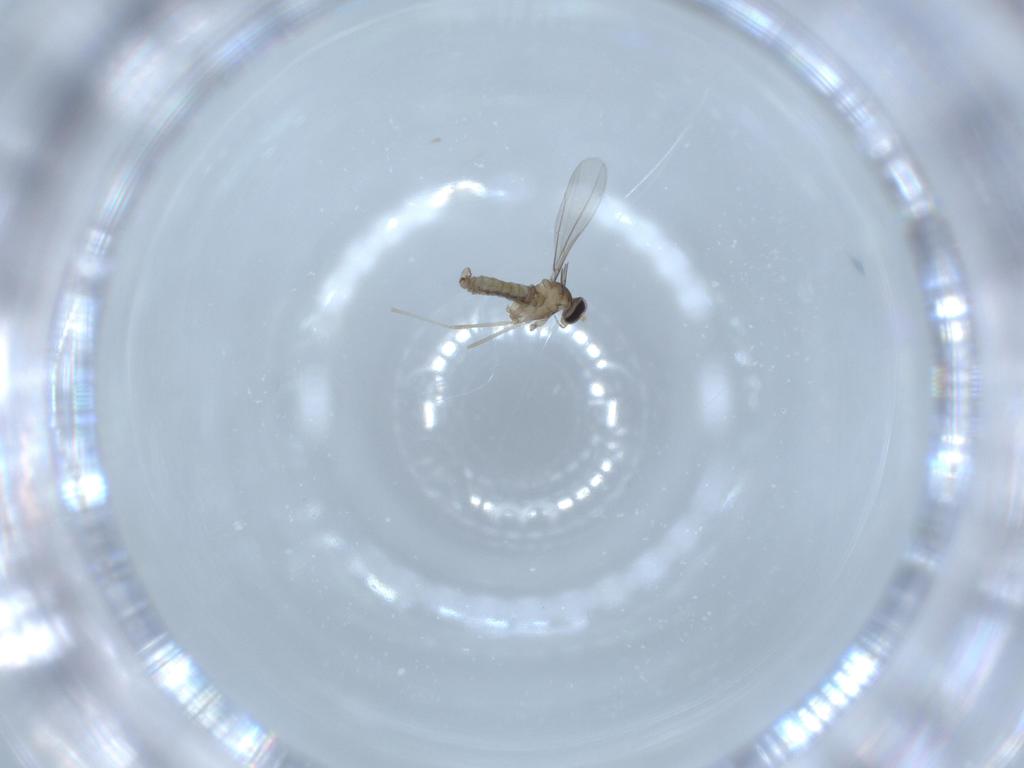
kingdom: Animalia
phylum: Arthropoda
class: Insecta
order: Diptera
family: Cecidomyiidae
